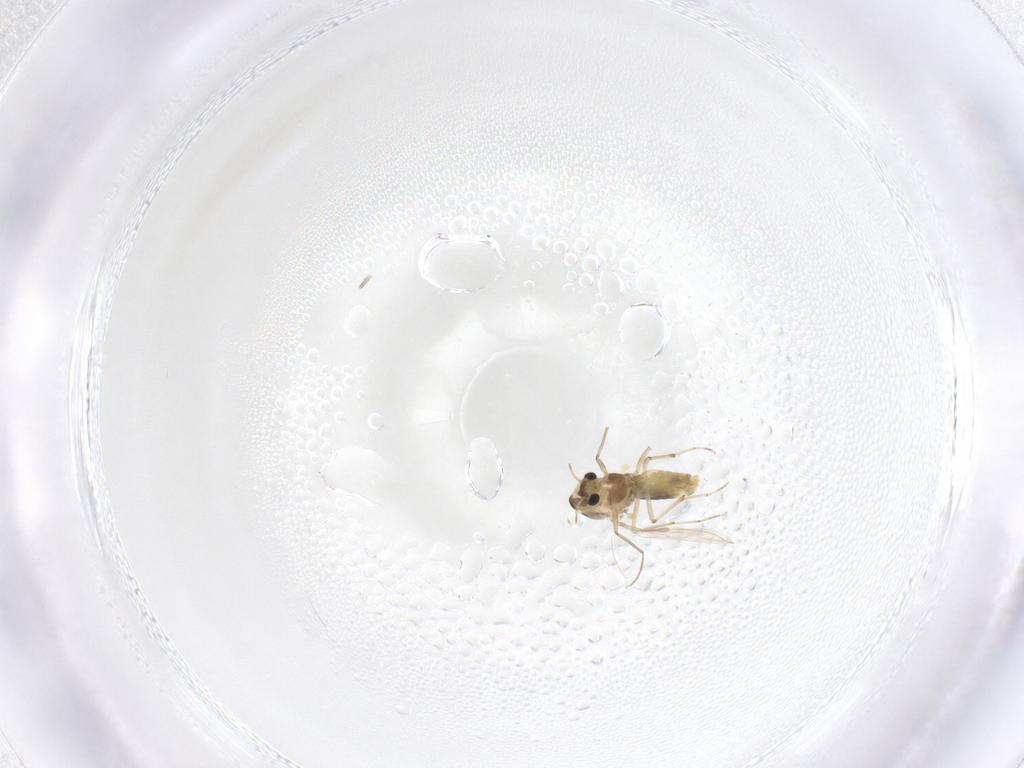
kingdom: Animalia
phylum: Arthropoda
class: Insecta
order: Diptera
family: Chironomidae
